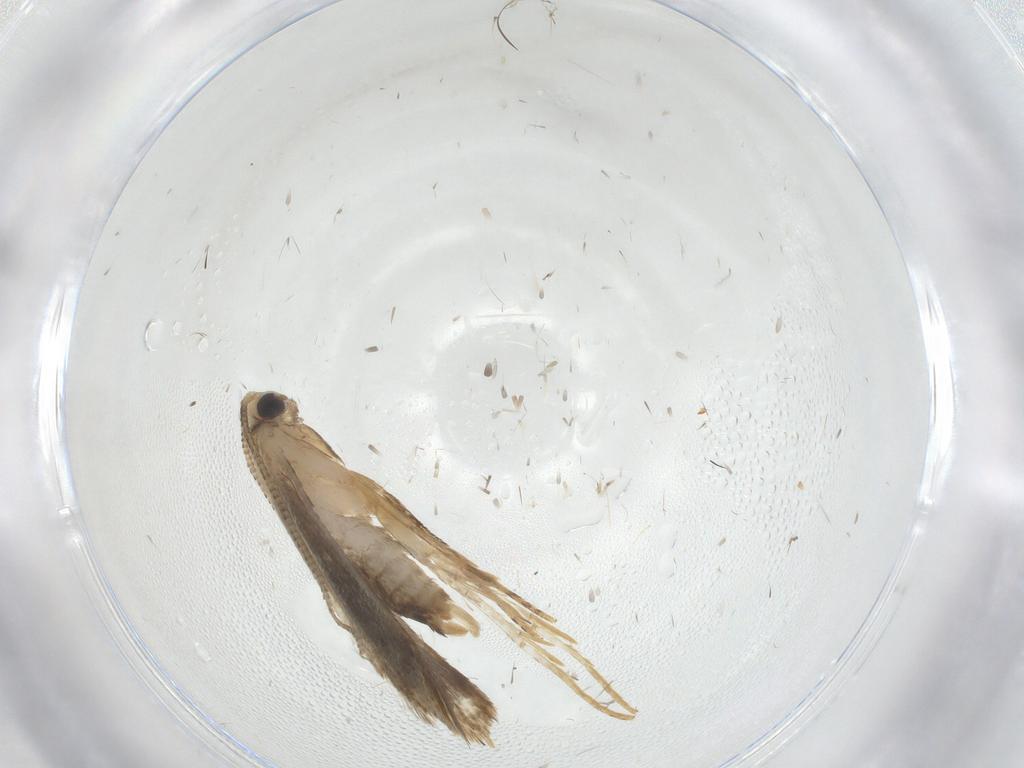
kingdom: Animalia
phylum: Arthropoda
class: Insecta
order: Lepidoptera
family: Tineidae
